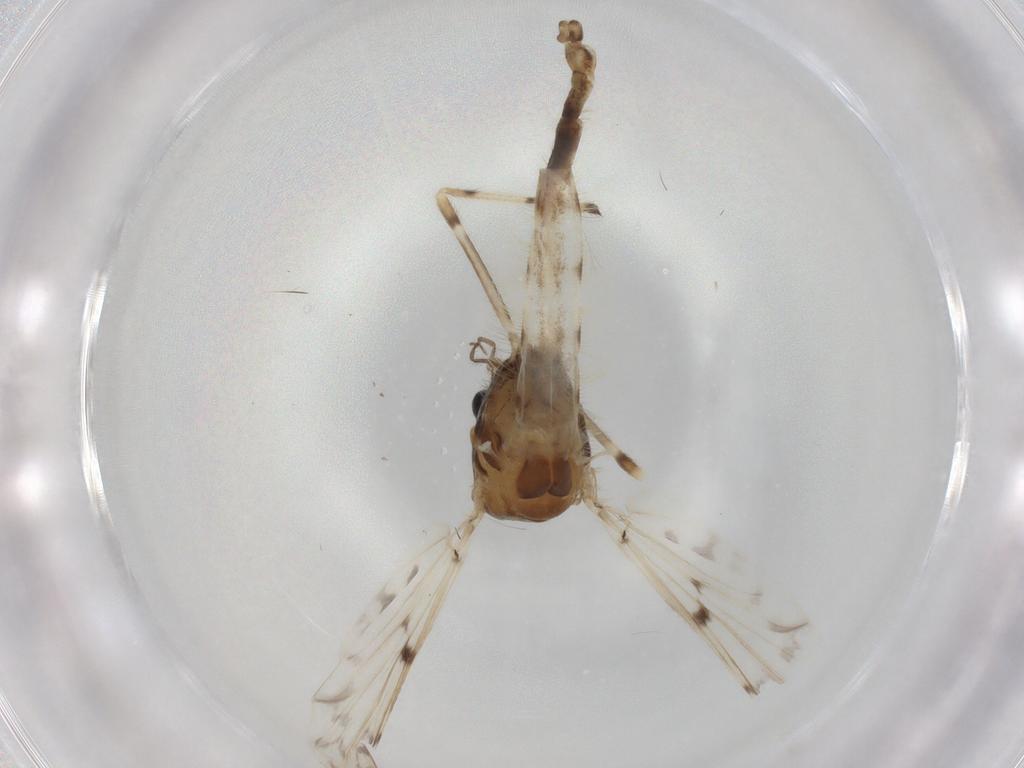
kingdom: Animalia
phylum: Arthropoda
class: Insecta
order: Diptera
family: Chironomidae
